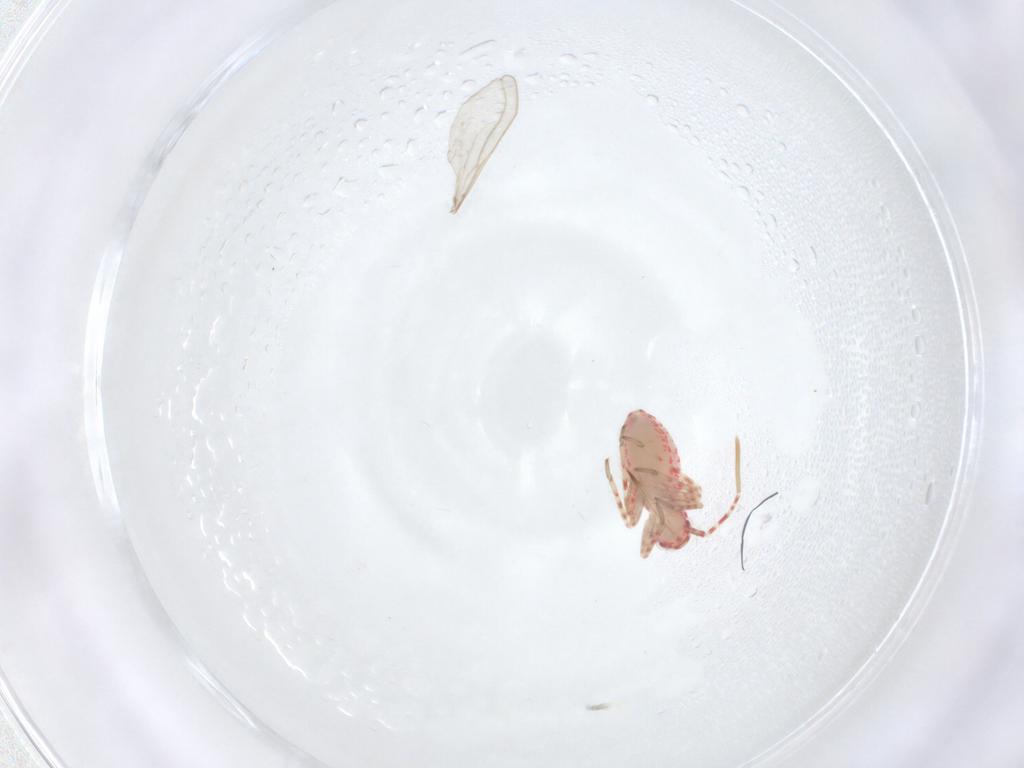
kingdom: Animalia
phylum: Arthropoda
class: Insecta
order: Hemiptera
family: Miridae
